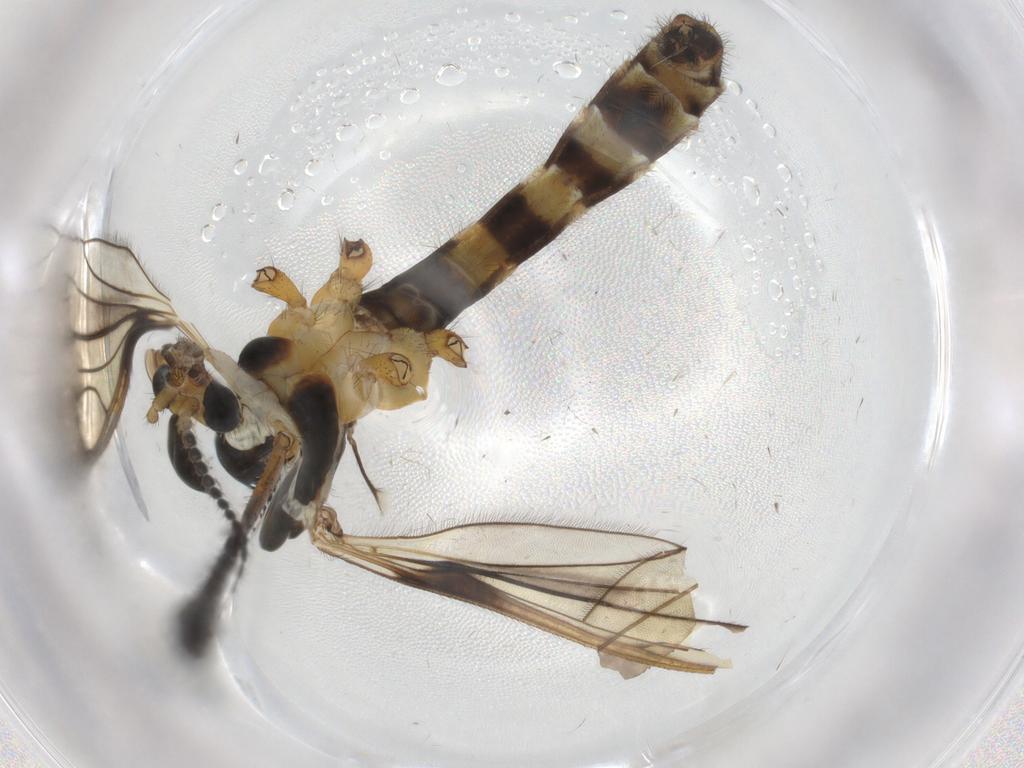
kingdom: Animalia
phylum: Arthropoda
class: Insecta
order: Diptera
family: Limoniidae
